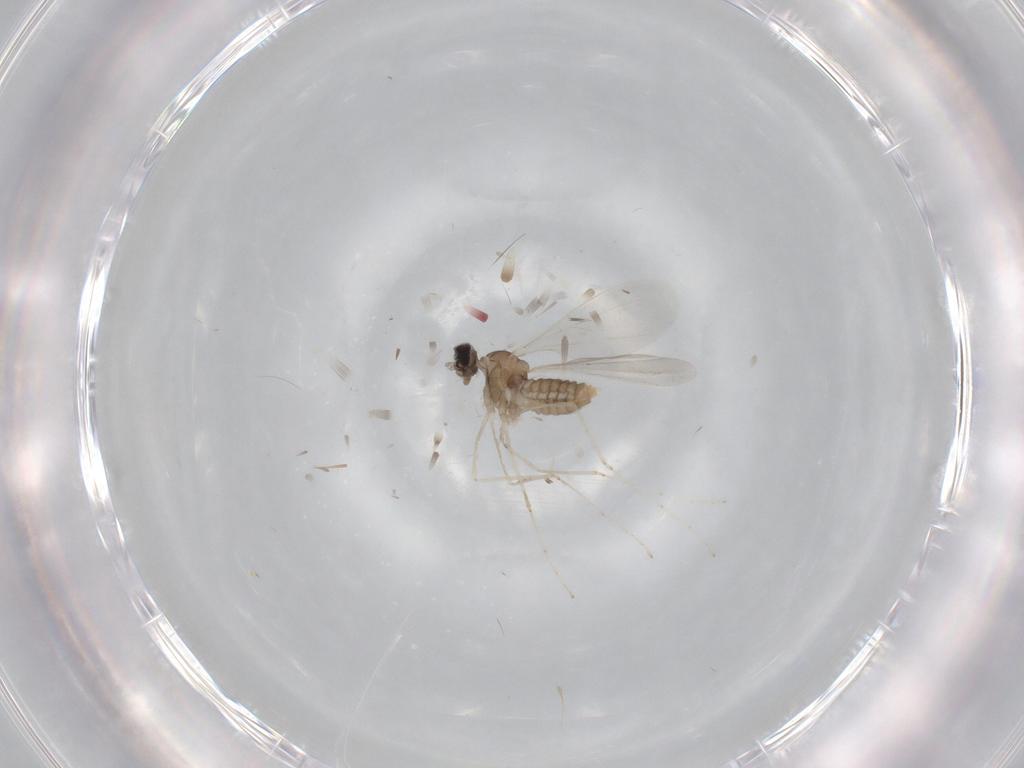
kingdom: Animalia
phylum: Arthropoda
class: Insecta
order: Diptera
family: Cecidomyiidae
